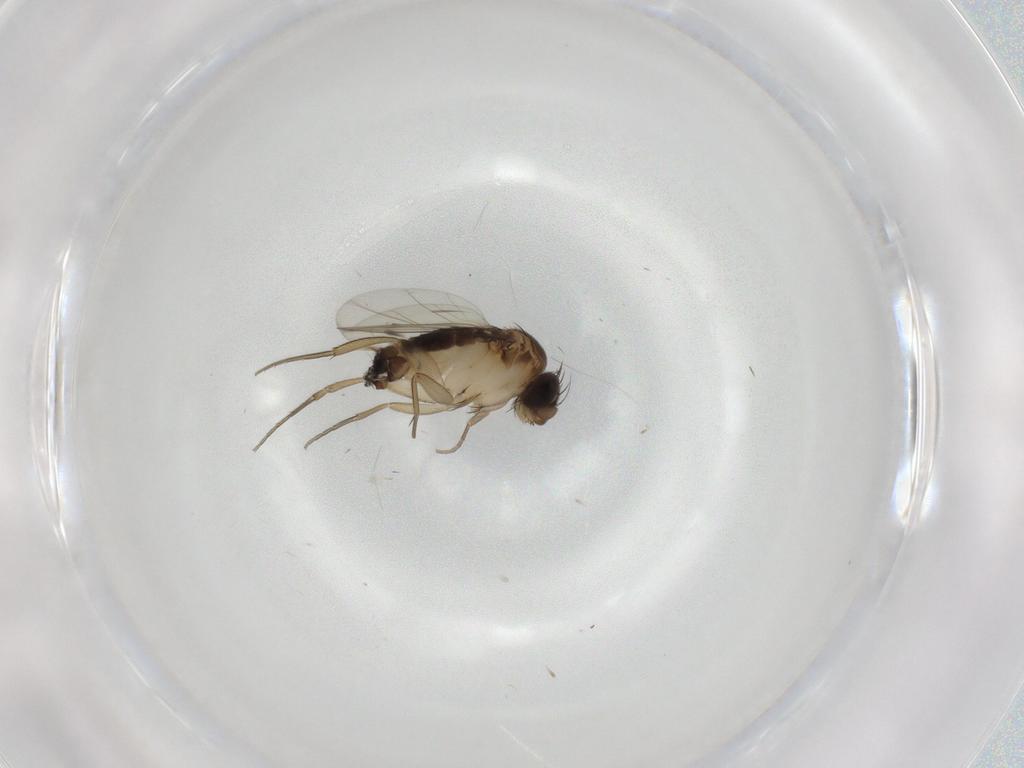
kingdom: Animalia
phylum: Arthropoda
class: Insecta
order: Diptera
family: Phoridae
